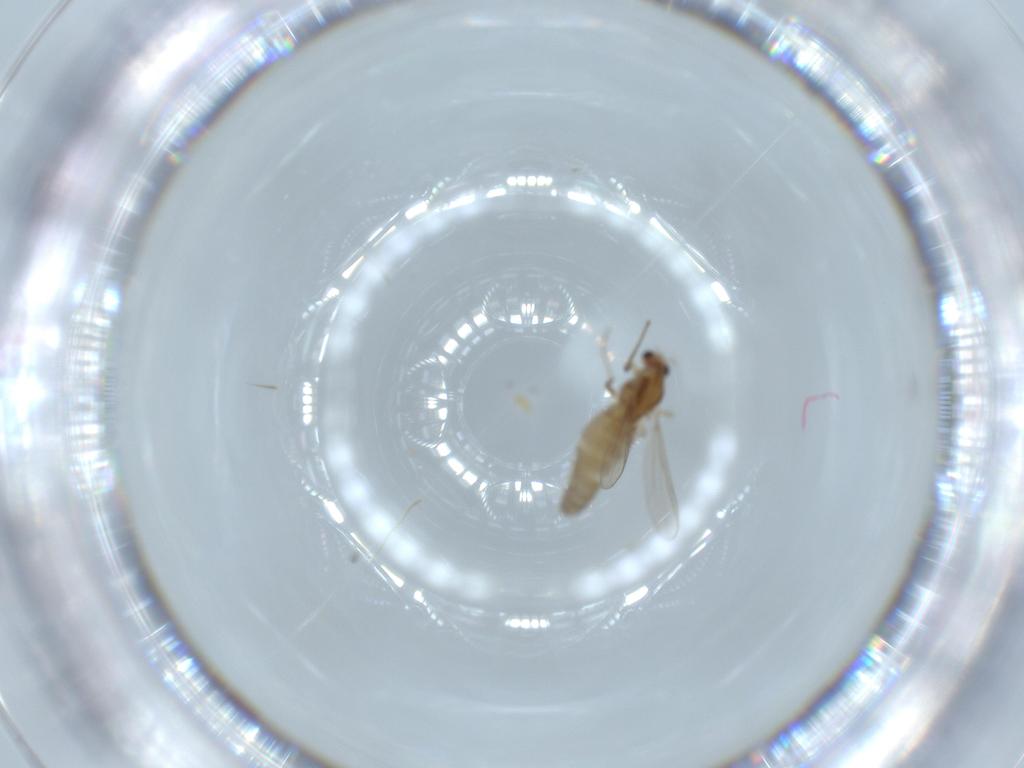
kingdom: Animalia
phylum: Arthropoda
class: Insecta
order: Diptera
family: Chironomidae
